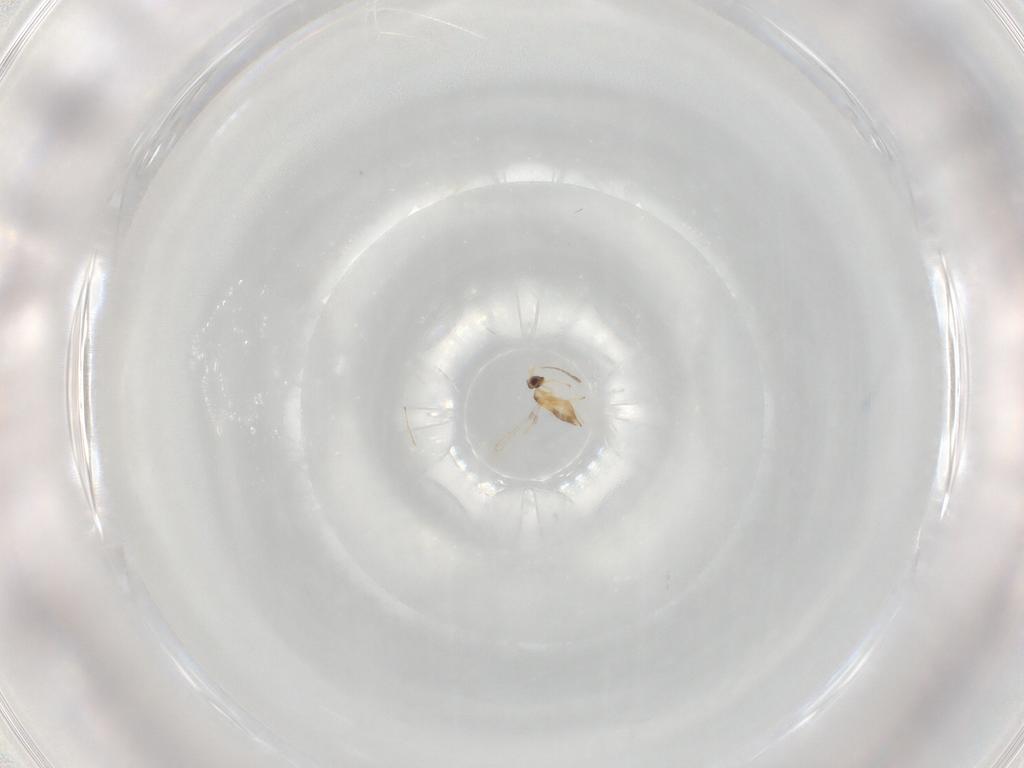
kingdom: Animalia
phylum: Arthropoda
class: Insecta
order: Hymenoptera
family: Mymaridae
